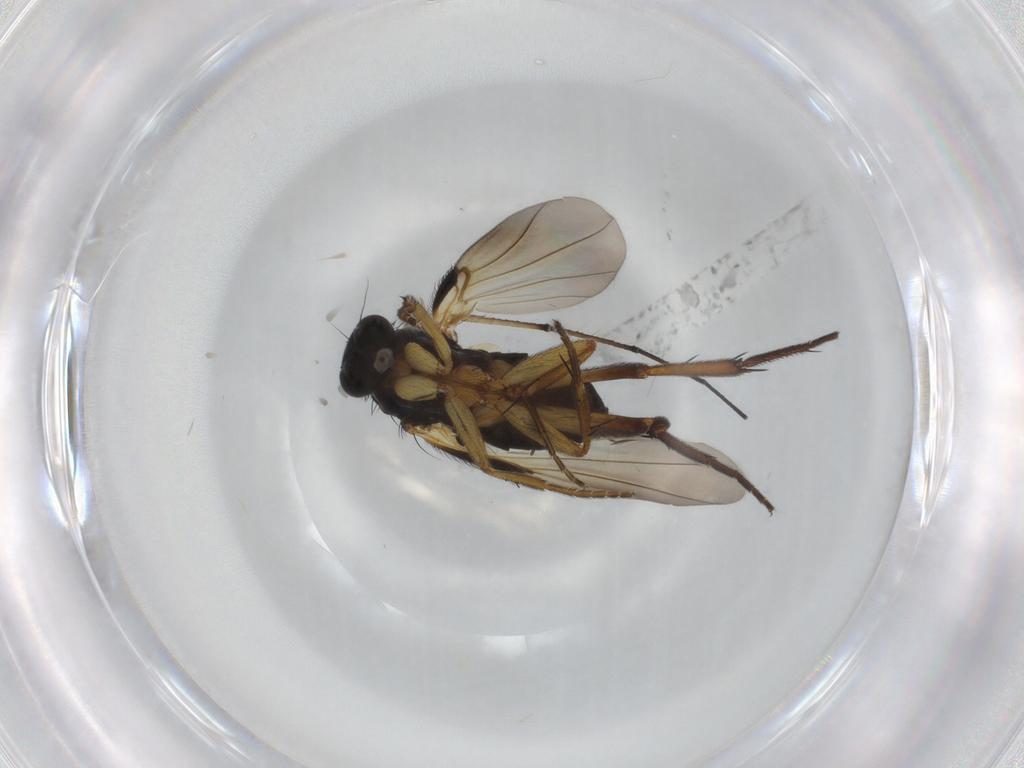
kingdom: Animalia
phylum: Arthropoda
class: Insecta
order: Diptera
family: Phoridae
